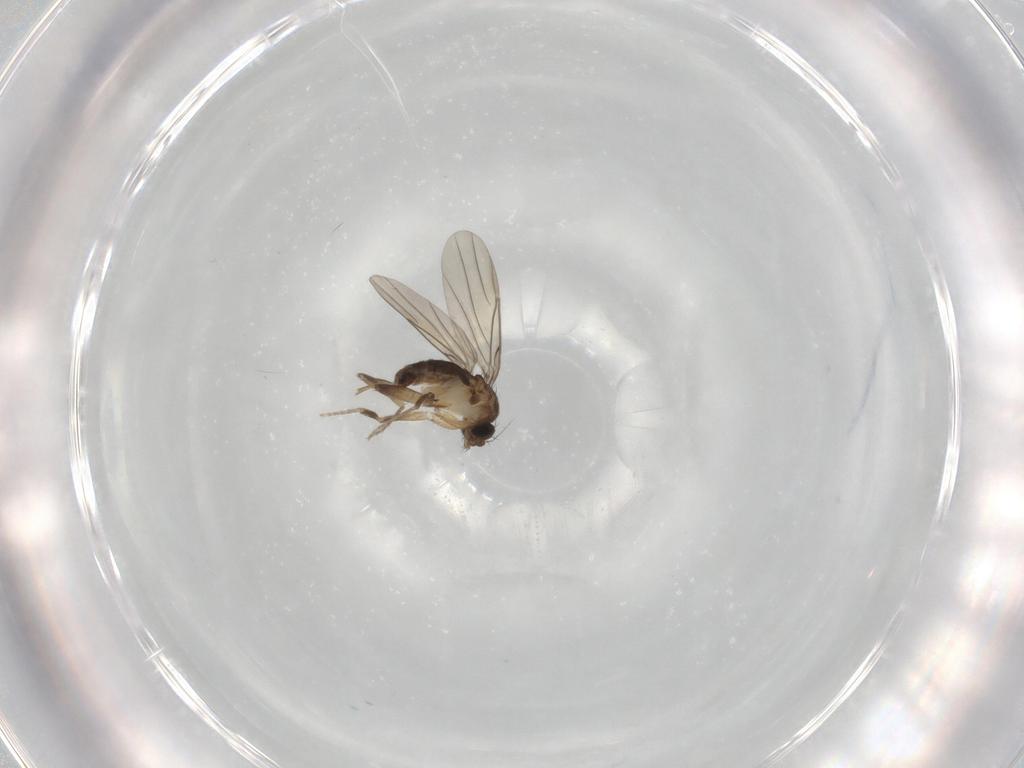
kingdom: Animalia
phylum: Arthropoda
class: Insecta
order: Diptera
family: Phoridae
